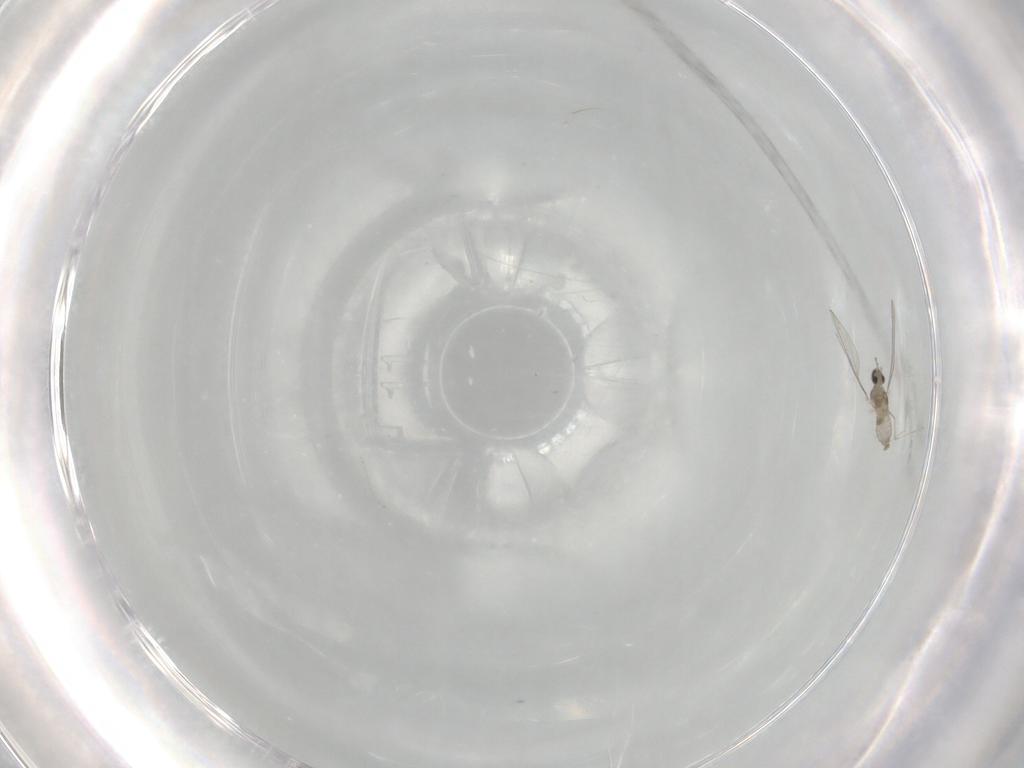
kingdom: Animalia
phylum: Arthropoda
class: Insecta
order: Diptera
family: Cecidomyiidae
